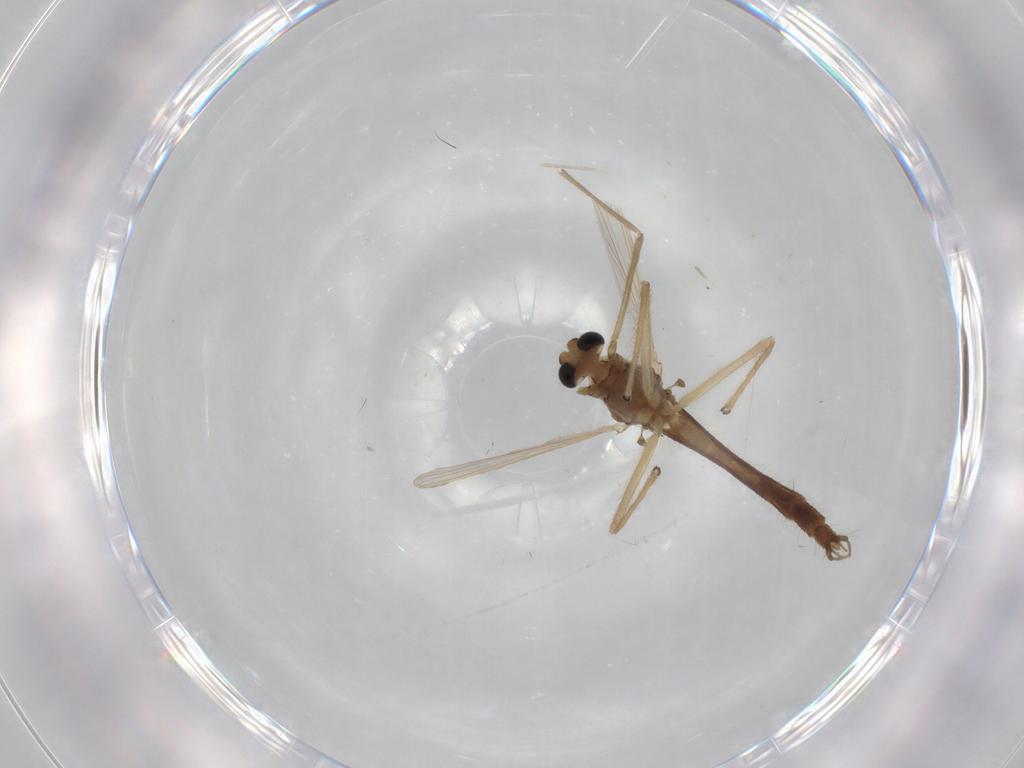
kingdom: Animalia
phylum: Arthropoda
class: Insecta
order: Diptera
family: Chironomidae
